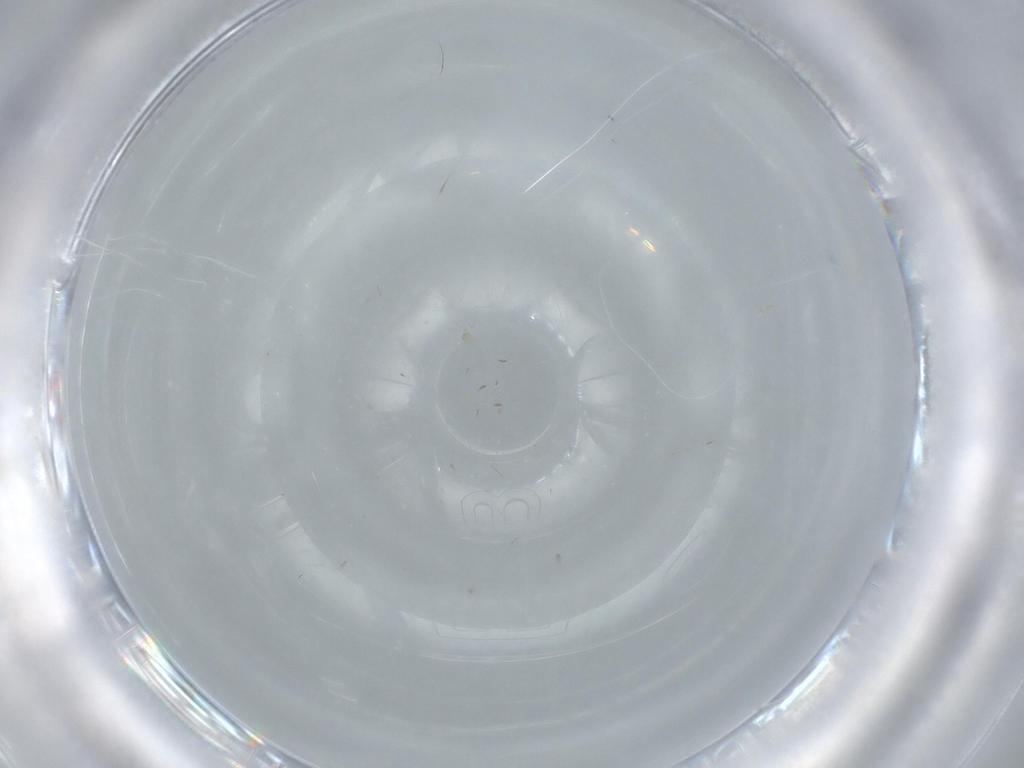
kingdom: Animalia
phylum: Arthropoda
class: Insecta
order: Hymenoptera
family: Mymaridae
